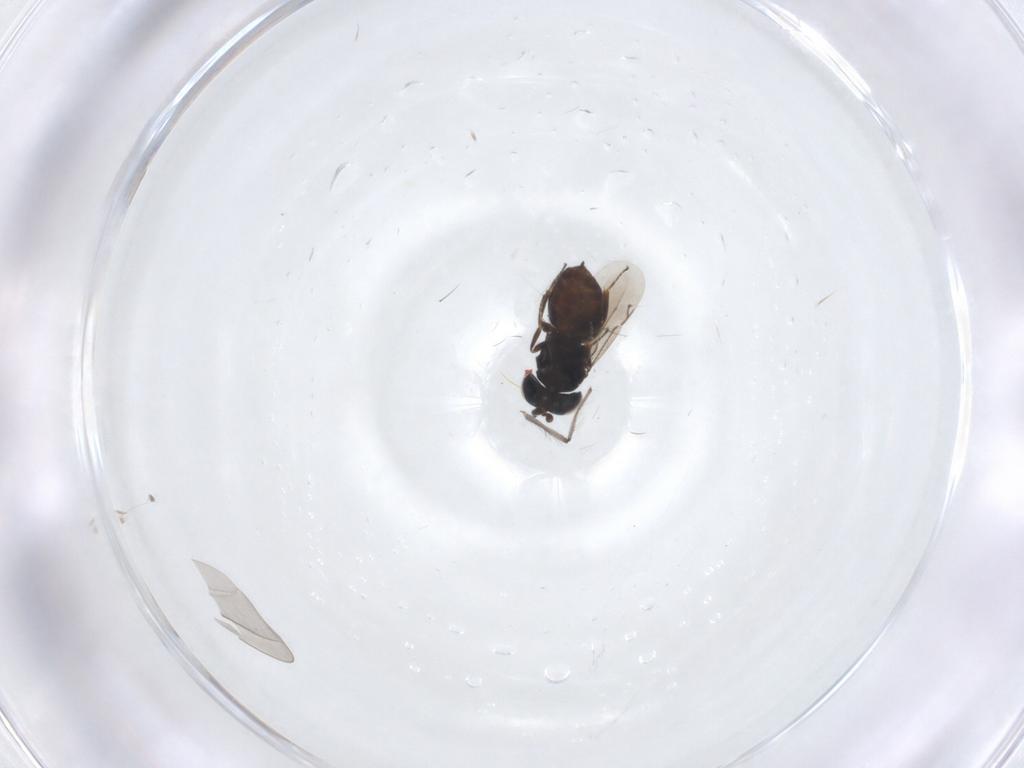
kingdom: Animalia
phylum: Arthropoda
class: Insecta
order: Hymenoptera
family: Eunotidae
